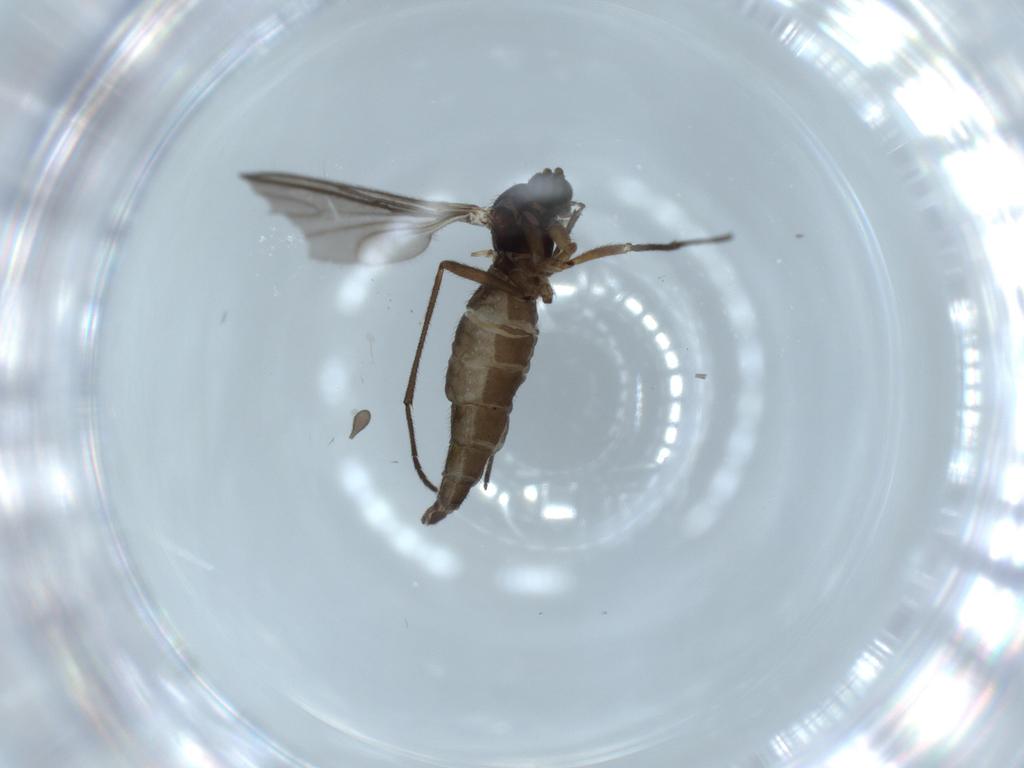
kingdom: Animalia
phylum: Arthropoda
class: Insecta
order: Diptera
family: Sciaridae
